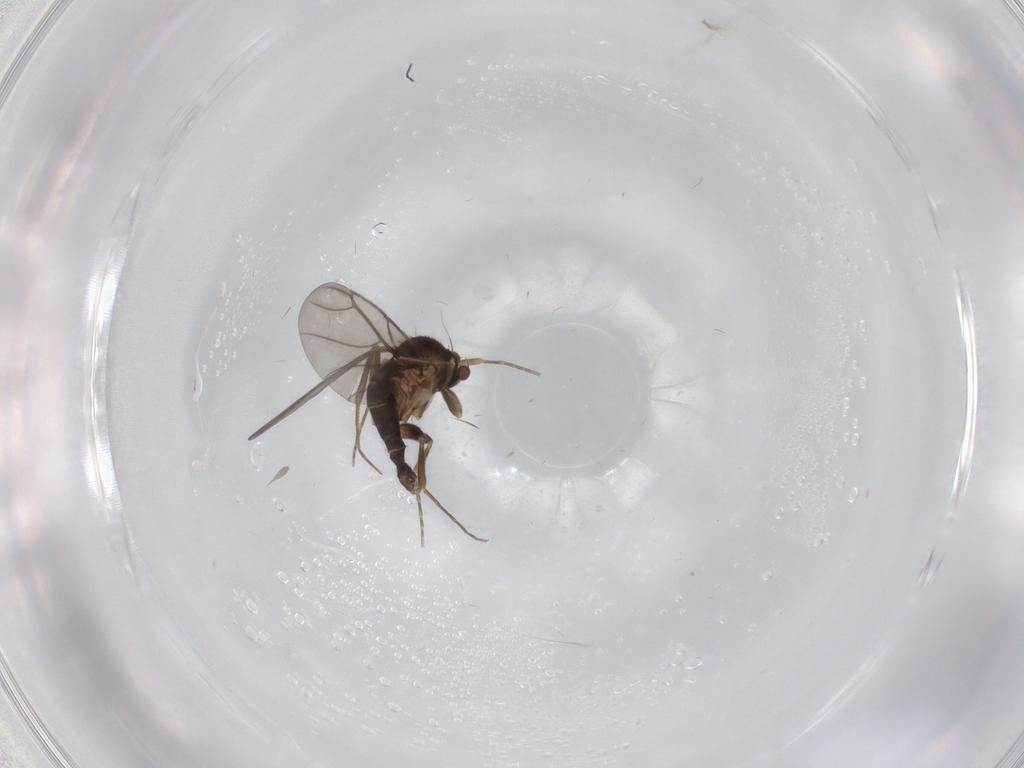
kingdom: Animalia
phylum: Arthropoda
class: Insecta
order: Diptera
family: Cecidomyiidae
